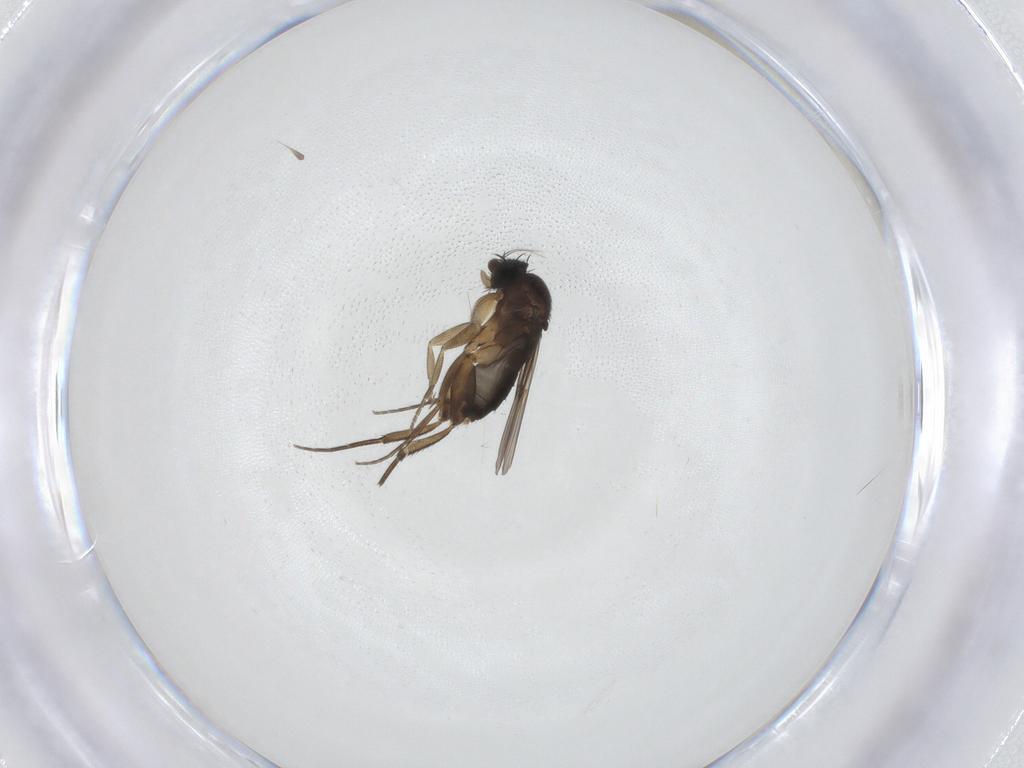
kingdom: Animalia
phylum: Arthropoda
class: Insecta
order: Diptera
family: Phoridae
